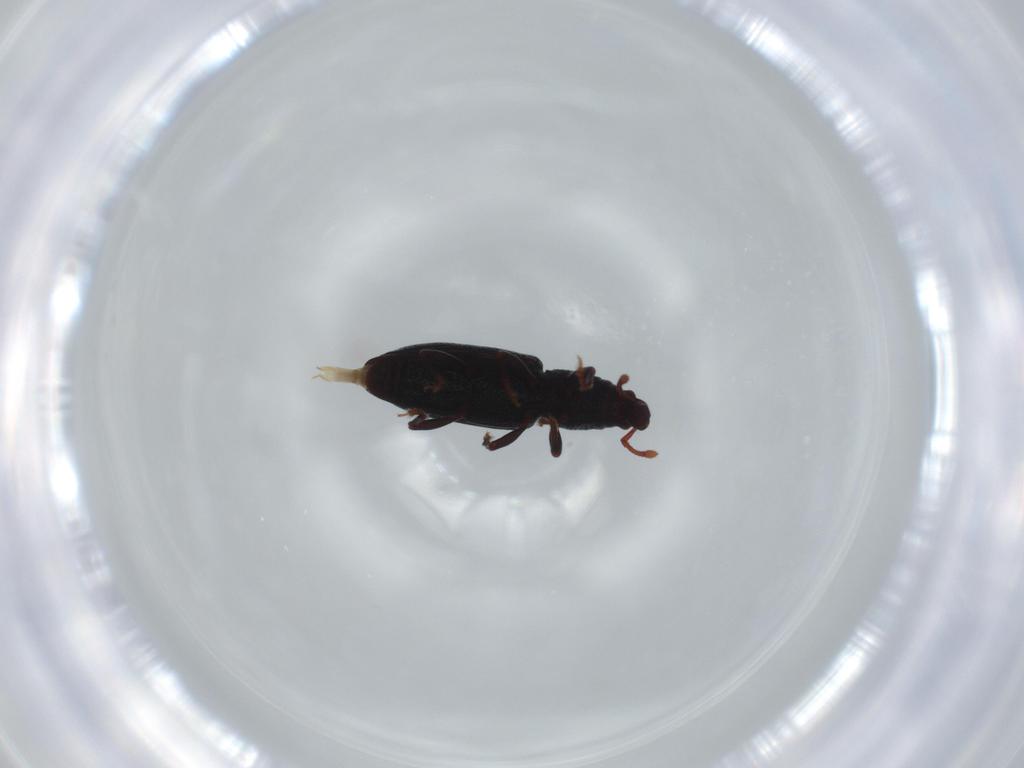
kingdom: Animalia
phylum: Arthropoda
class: Insecta
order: Coleoptera
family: Curculionidae
